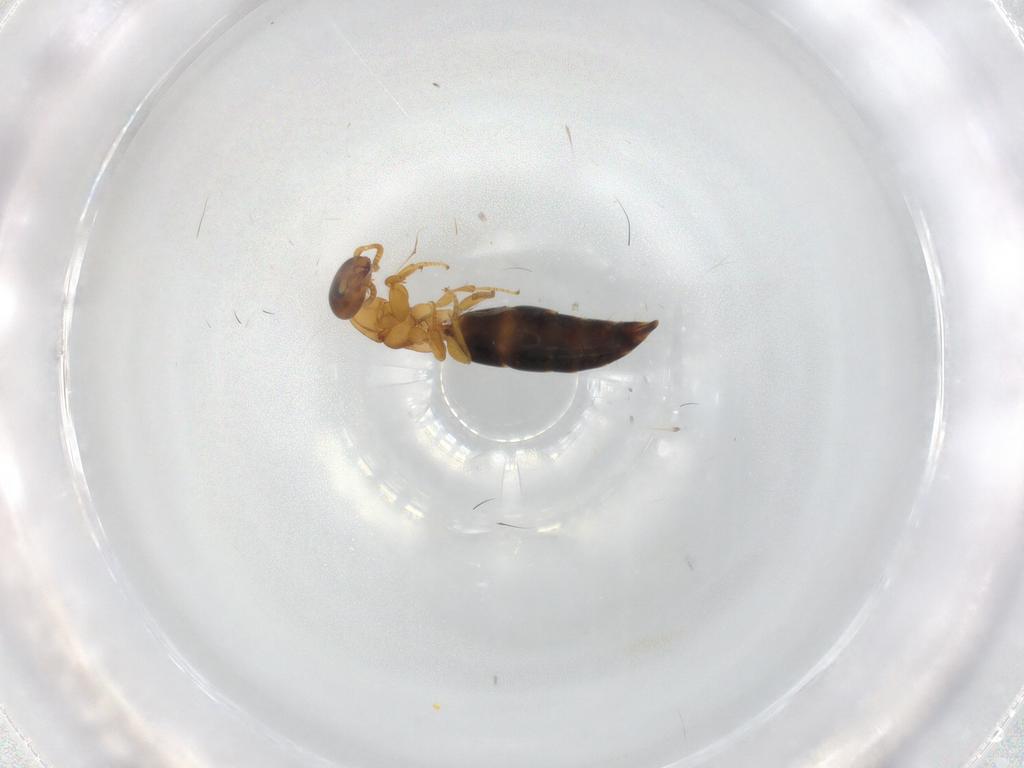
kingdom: Animalia
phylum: Arthropoda
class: Insecta
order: Hymenoptera
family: Bethylidae
